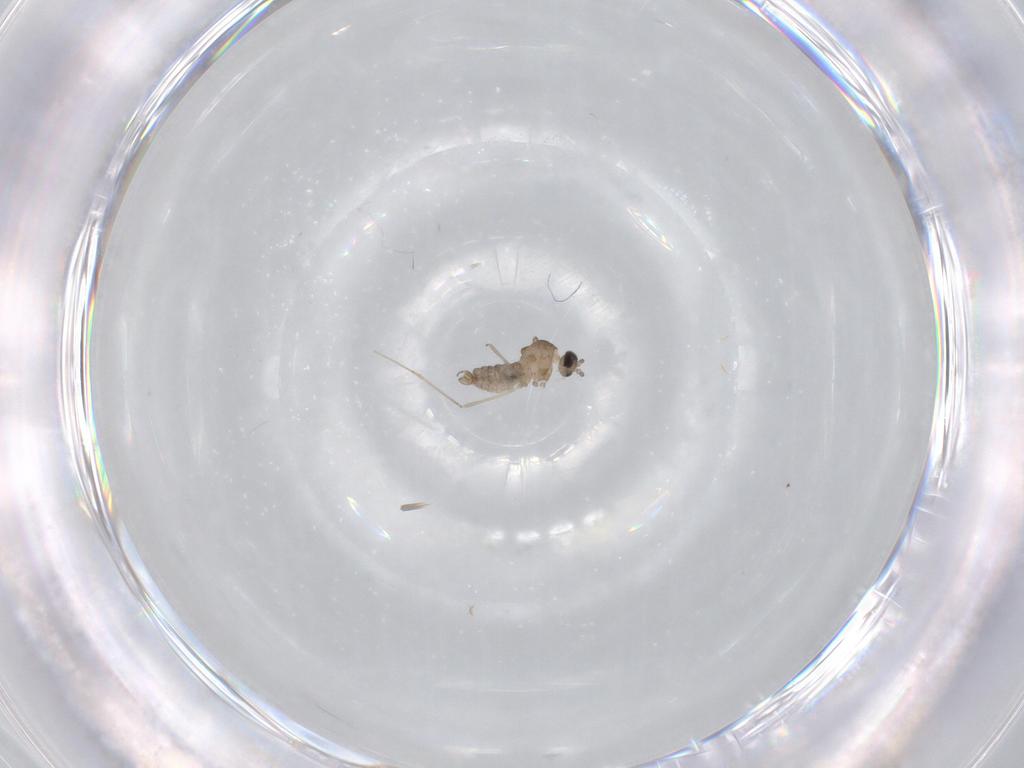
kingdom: Animalia
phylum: Arthropoda
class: Insecta
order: Diptera
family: Cecidomyiidae
